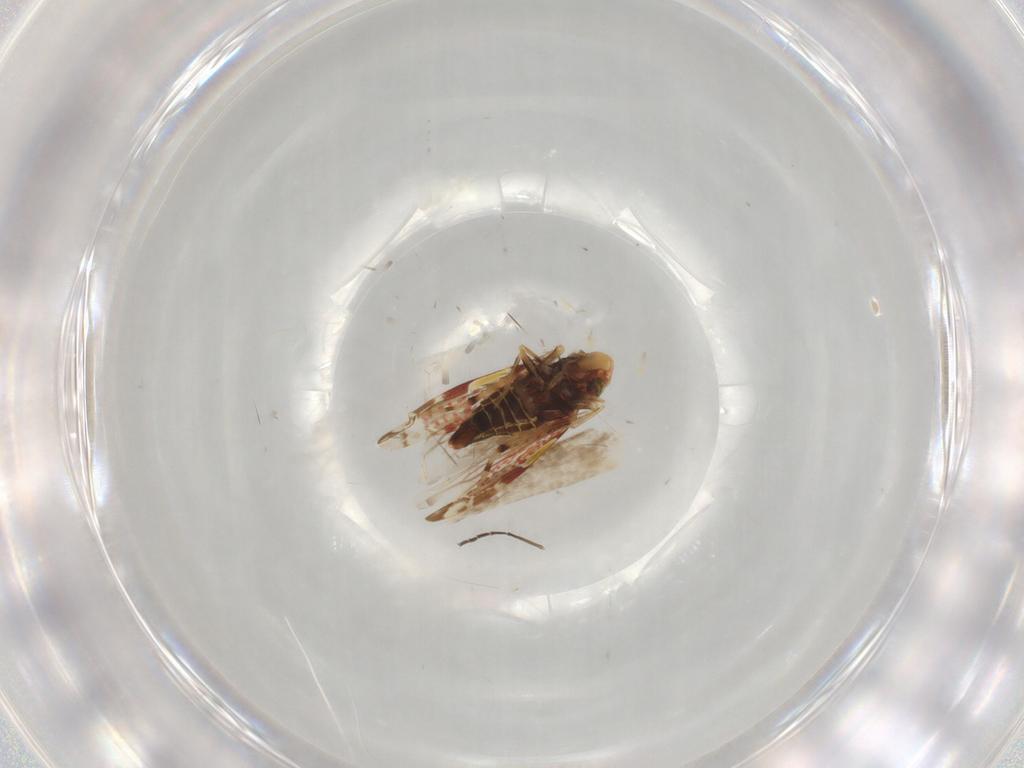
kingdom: Animalia
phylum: Arthropoda
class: Insecta
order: Hemiptera
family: Cicadellidae
